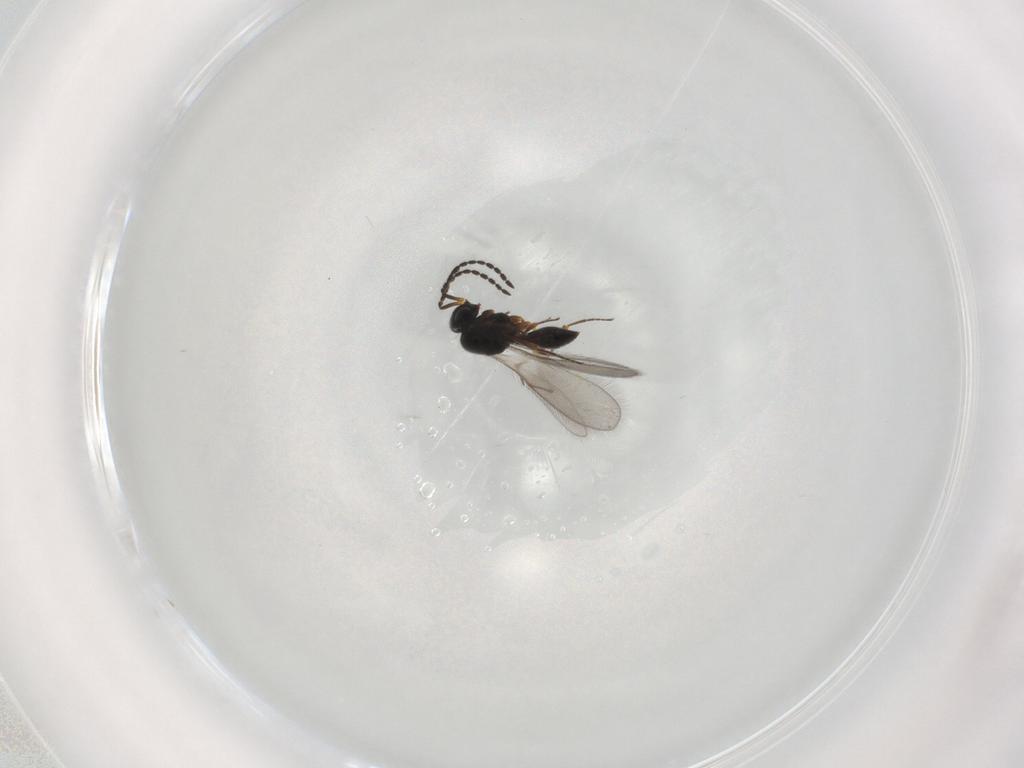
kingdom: Animalia
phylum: Arthropoda
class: Insecta
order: Hymenoptera
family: Scelionidae
